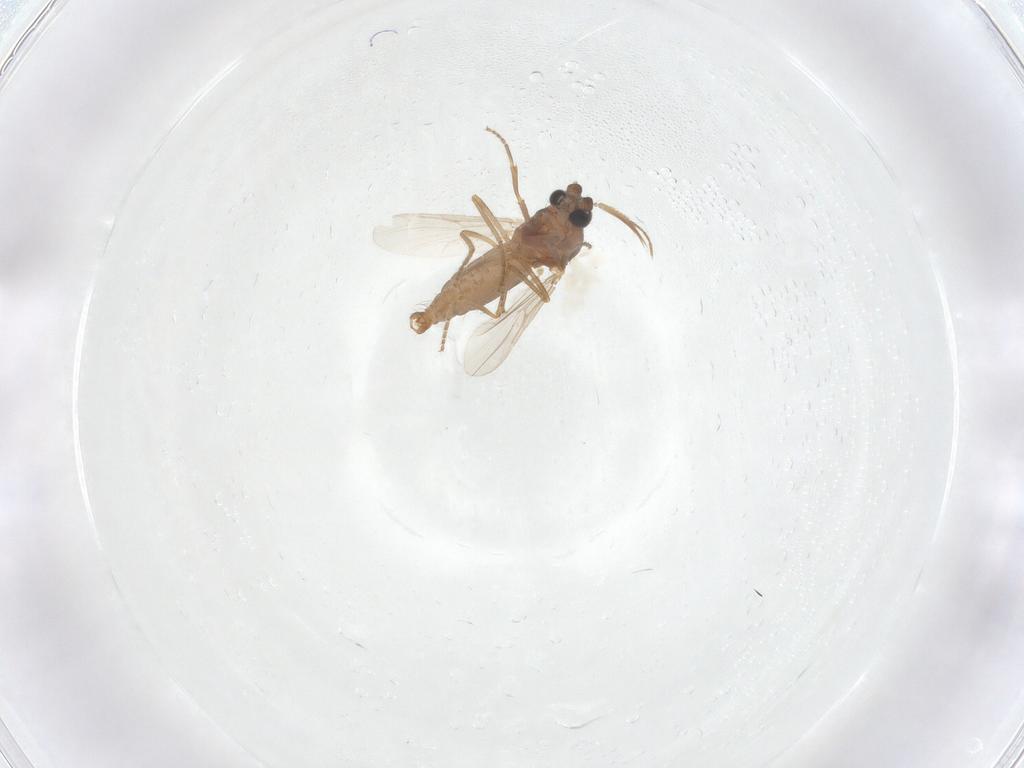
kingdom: Animalia
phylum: Arthropoda
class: Insecta
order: Diptera
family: Ceratopogonidae
